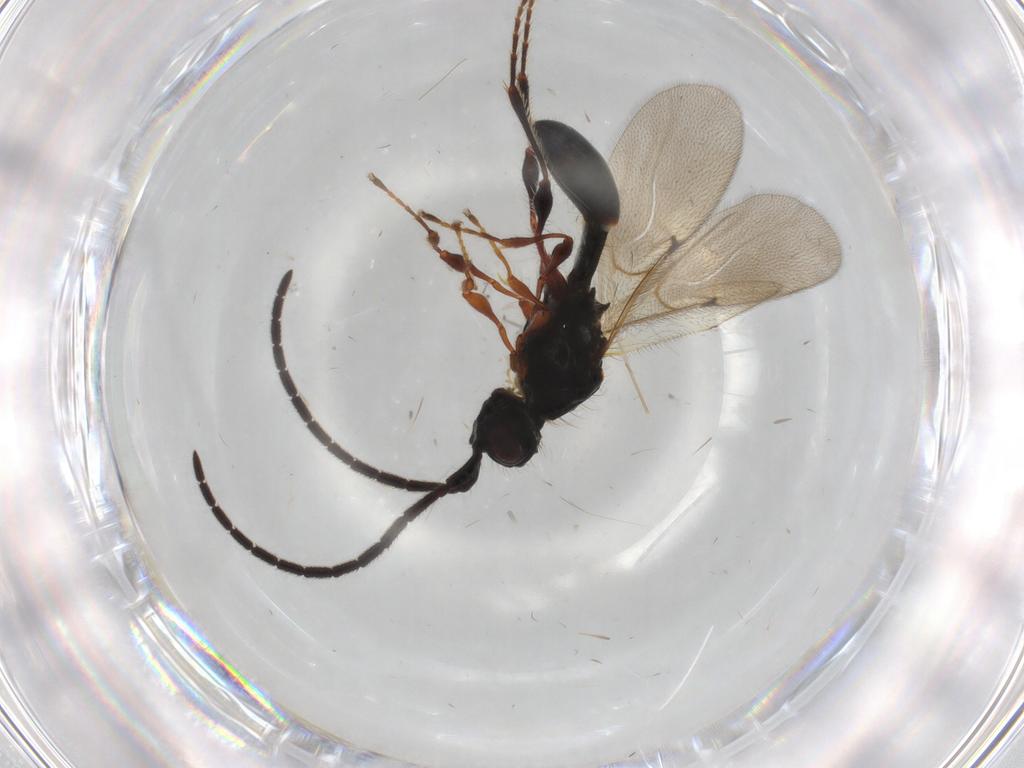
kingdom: Animalia
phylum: Arthropoda
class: Insecta
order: Hymenoptera
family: Diapriidae
